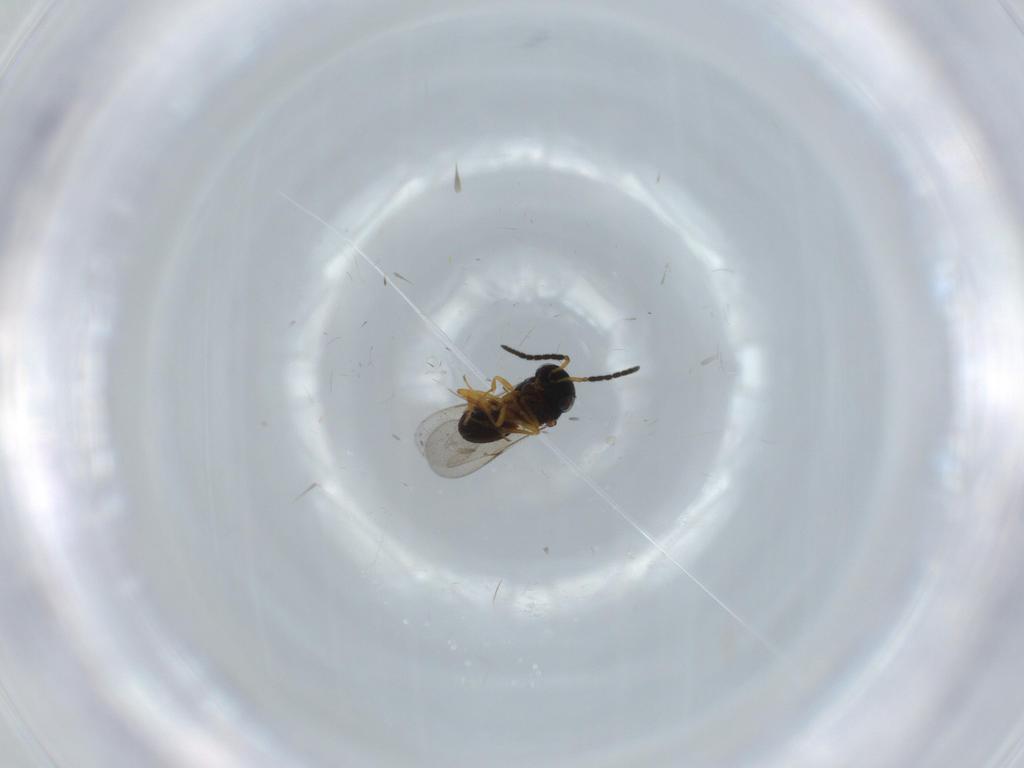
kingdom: Animalia
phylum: Arthropoda
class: Insecta
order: Hymenoptera
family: Scelionidae
